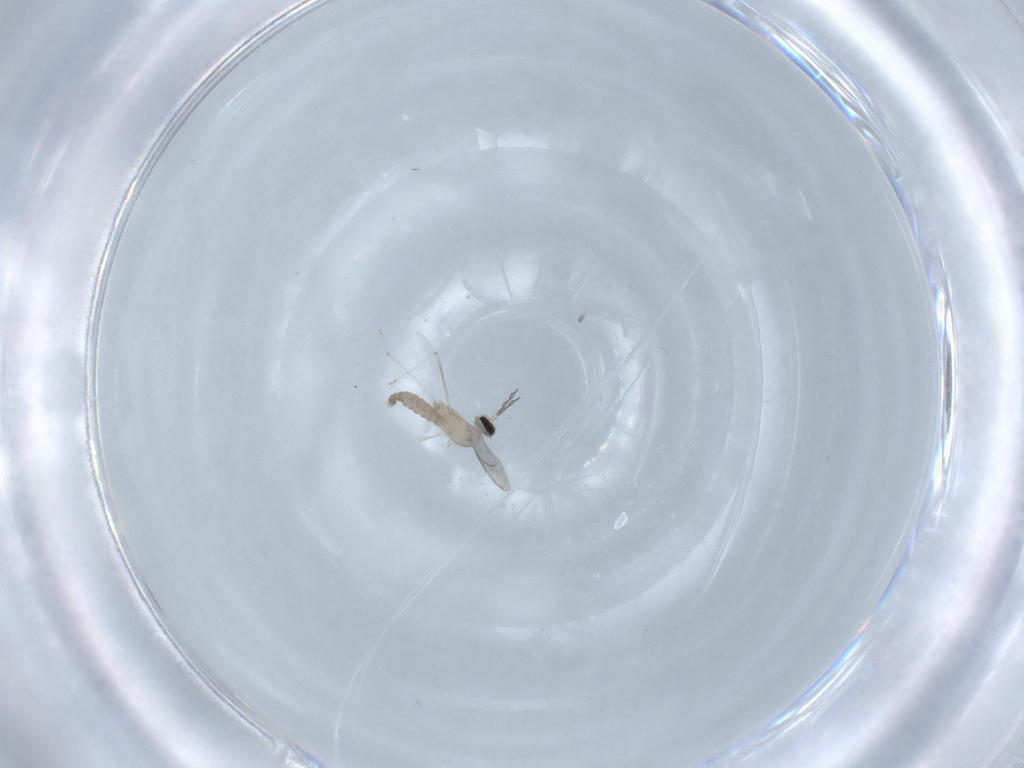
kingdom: Animalia
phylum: Arthropoda
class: Insecta
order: Diptera
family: Cecidomyiidae
